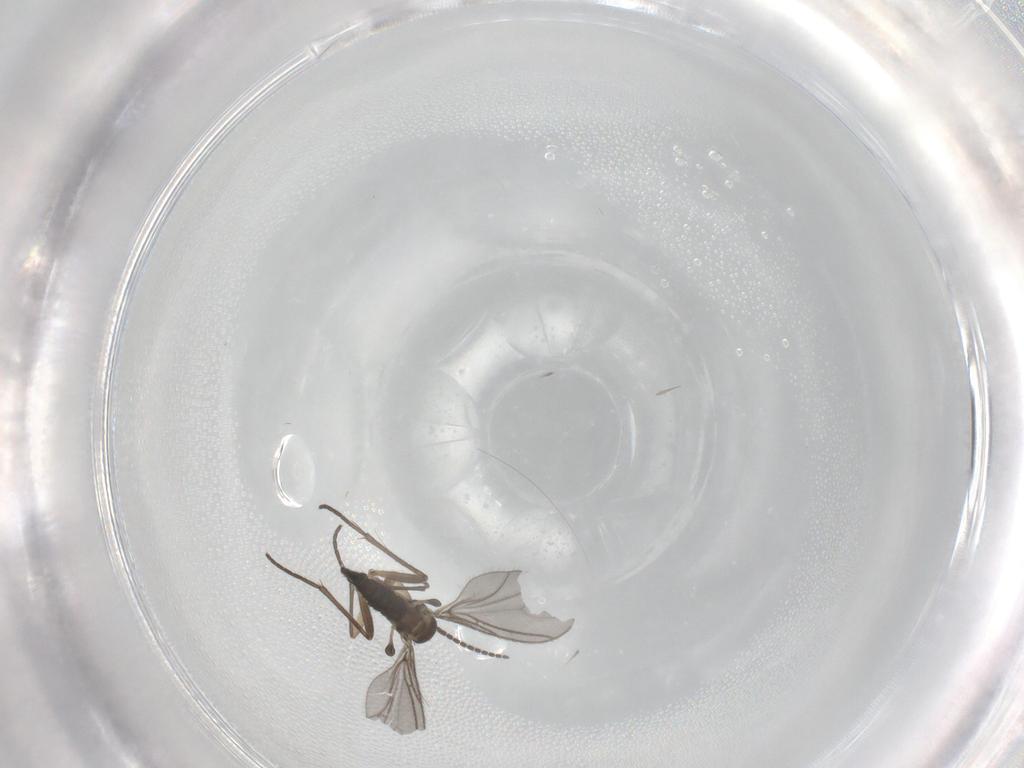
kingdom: Animalia
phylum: Arthropoda
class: Insecta
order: Diptera
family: Sciaridae
